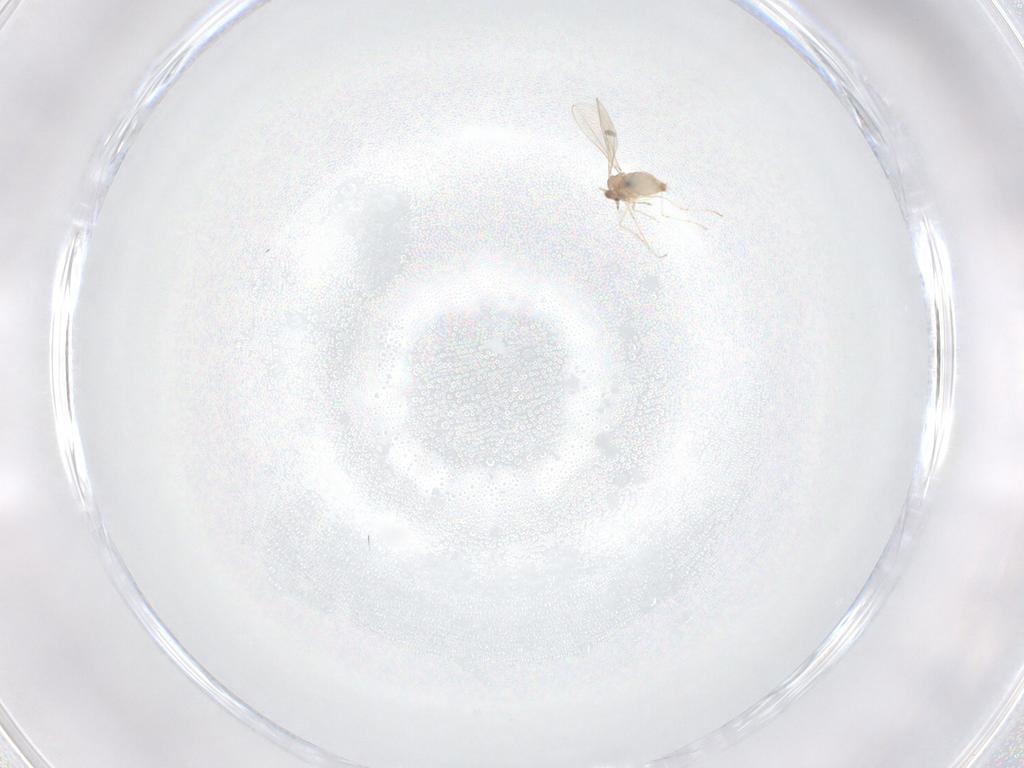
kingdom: Animalia
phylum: Arthropoda
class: Insecta
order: Diptera
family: Cecidomyiidae
